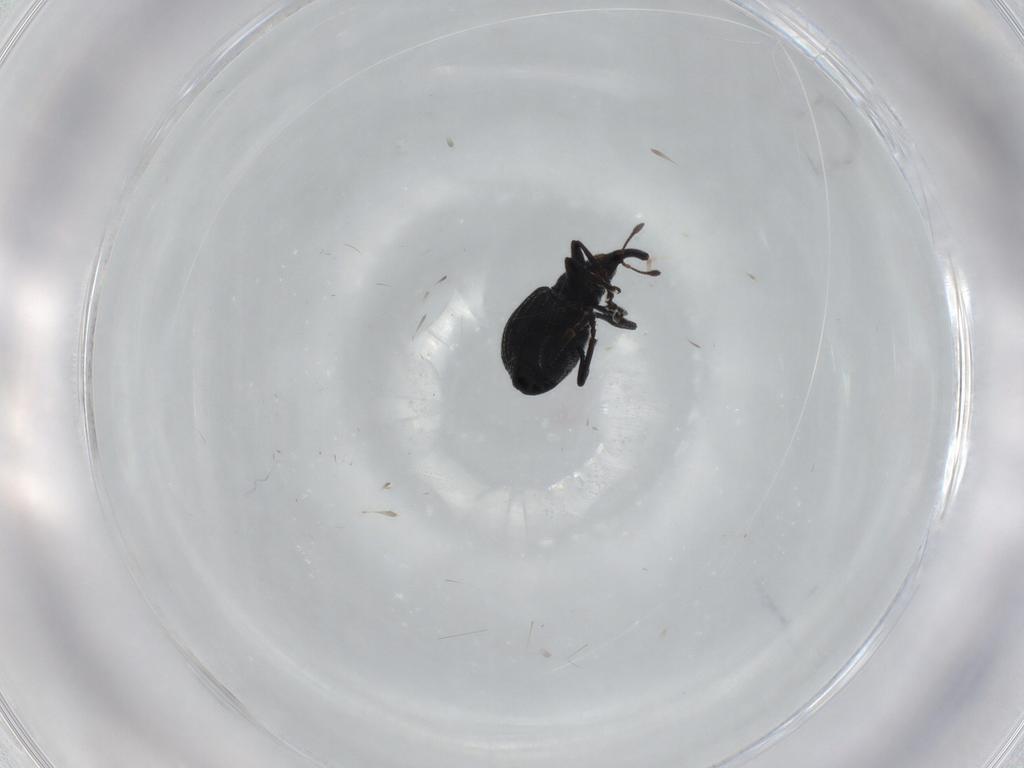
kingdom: Animalia
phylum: Arthropoda
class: Insecta
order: Coleoptera
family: Brentidae
